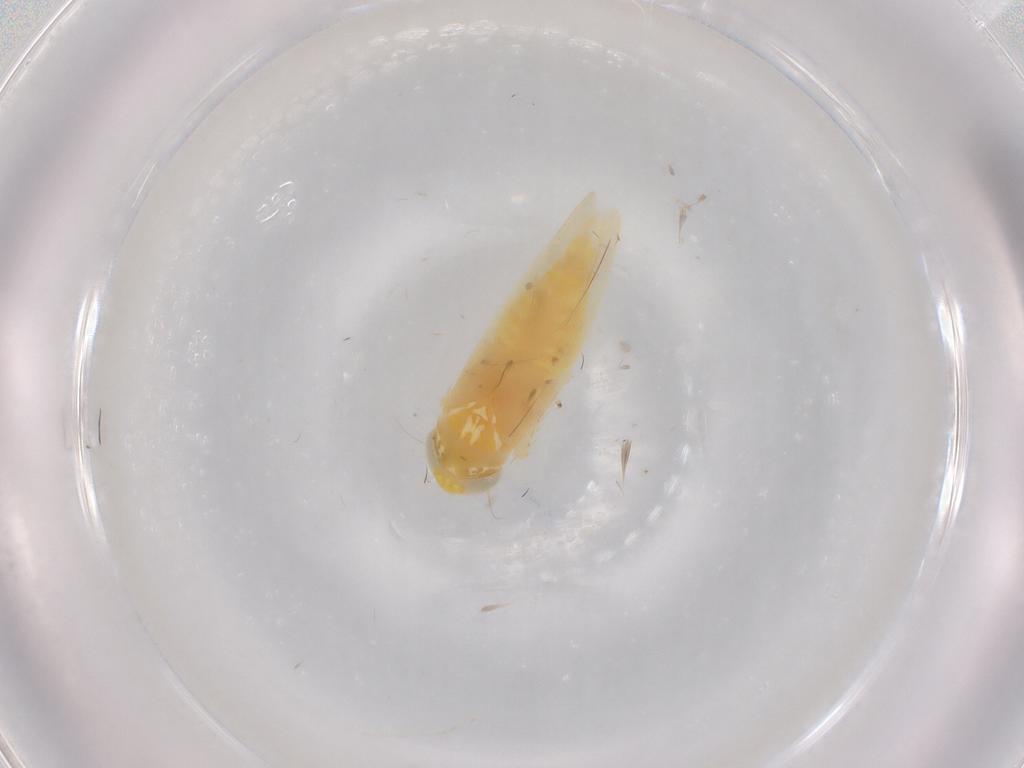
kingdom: Animalia
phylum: Arthropoda
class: Insecta
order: Hemiptera
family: Cicadellidae
